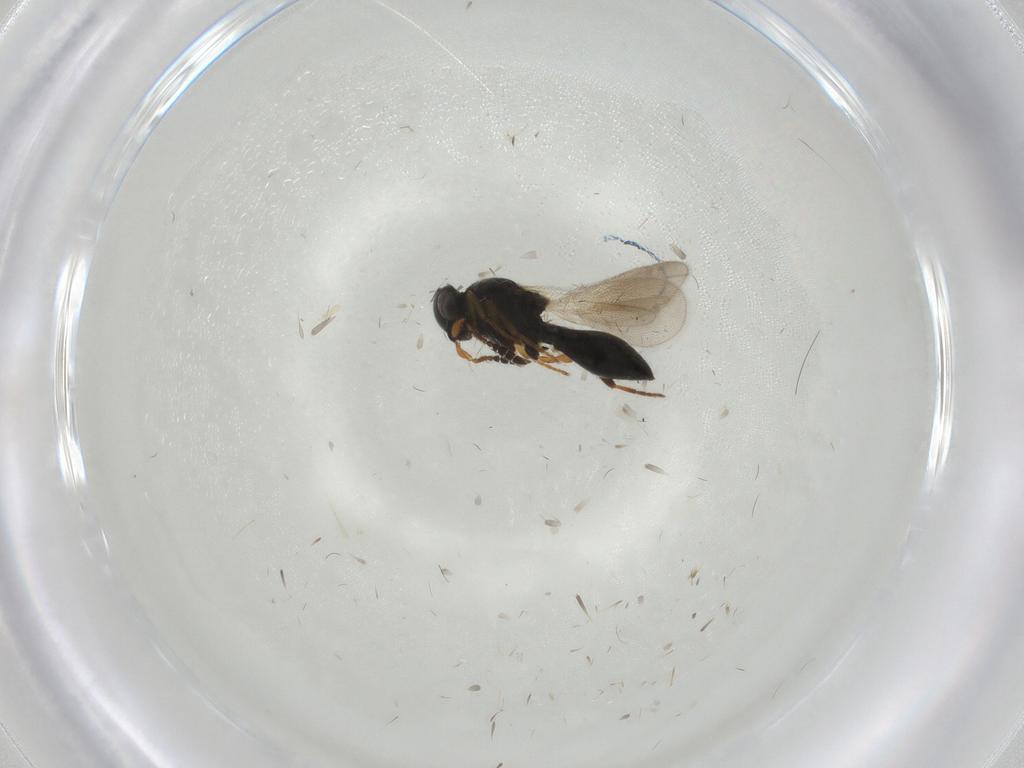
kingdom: Animalia
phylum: Arthropoda
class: Insecta
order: Hymenoptera
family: Platygastridae
